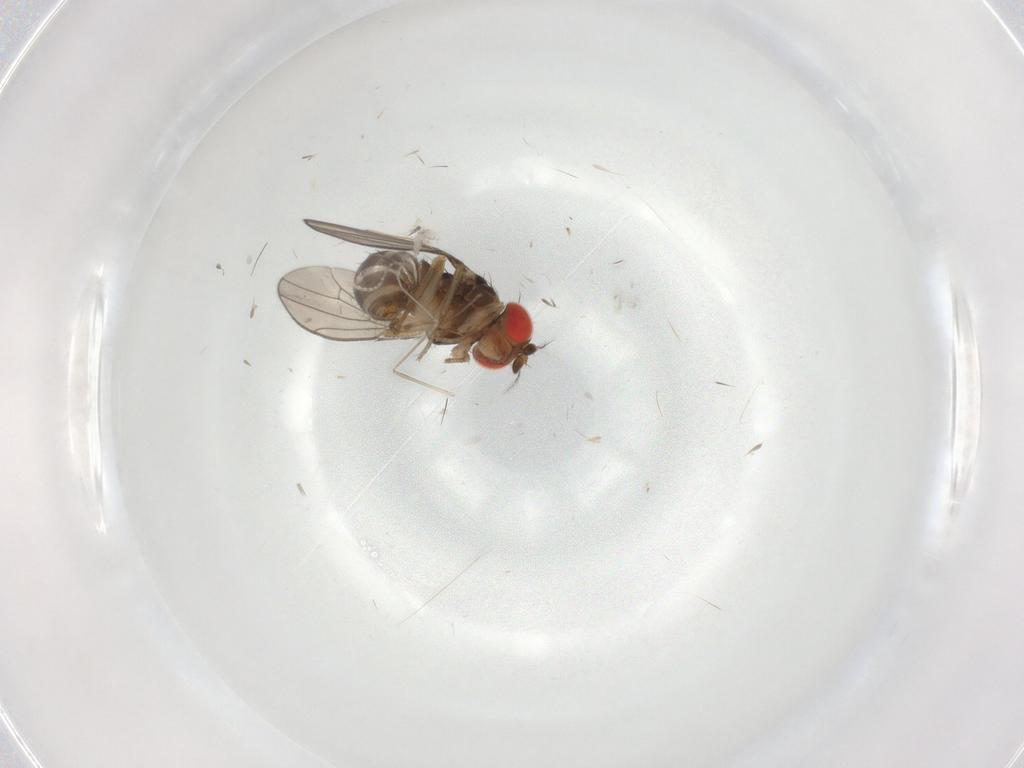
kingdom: Animalia
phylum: Arthropoda
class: Insecta
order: Diptera
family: Drosophilidae
